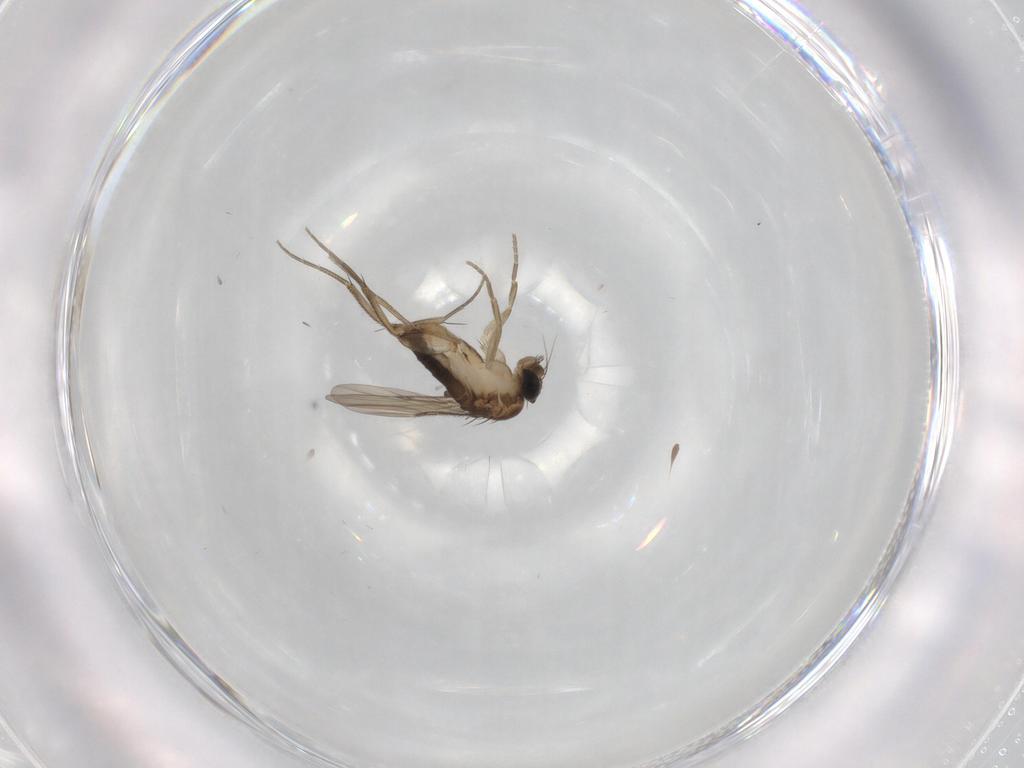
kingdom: Animalia
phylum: Arthropoda
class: Insecta
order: Diptera
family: Phoridae
